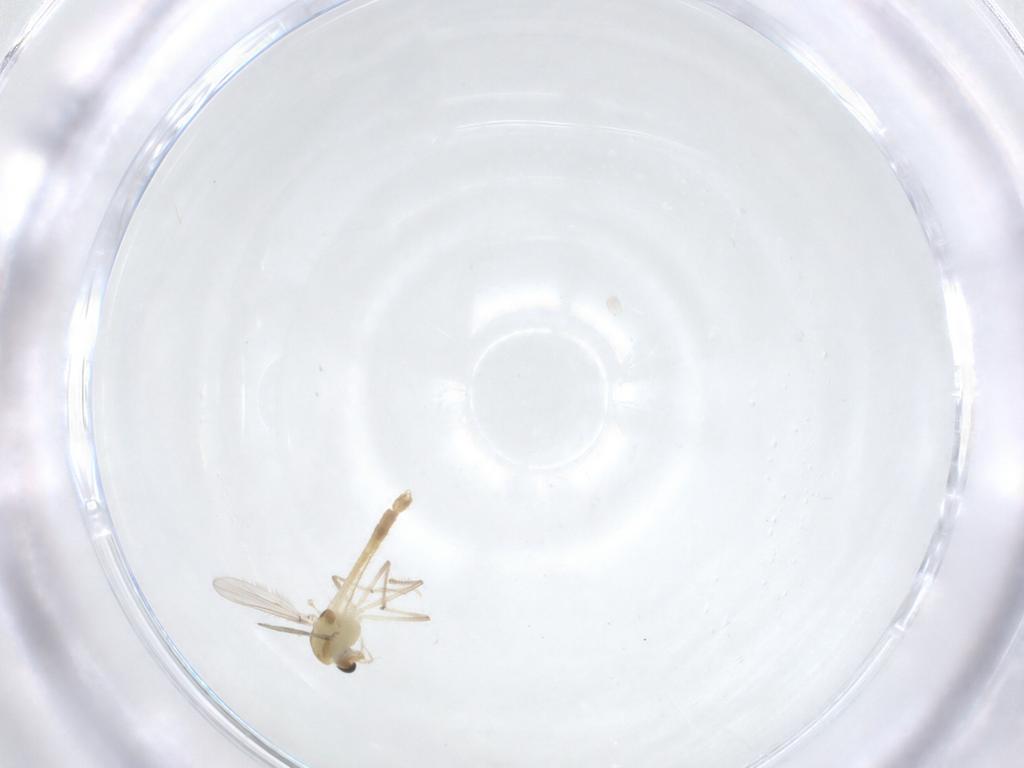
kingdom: Animalia
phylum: Arthropoda
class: Insecta
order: Diptera
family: Chironomidae
